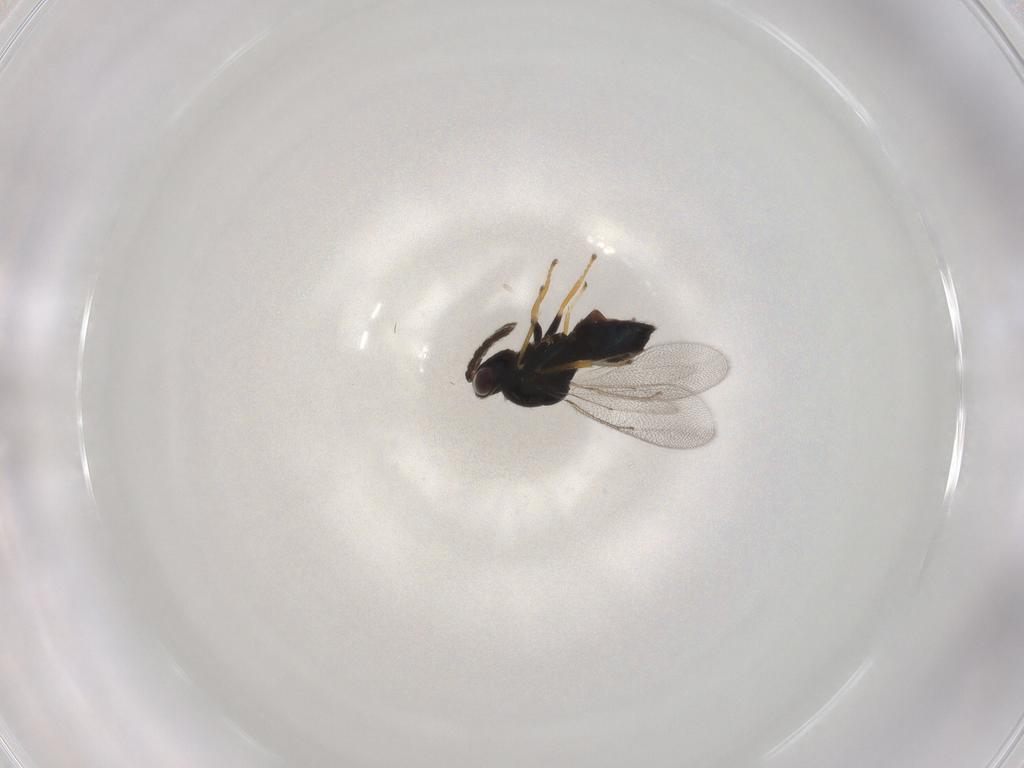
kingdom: Animalia
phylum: Arthropoda
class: Insecta
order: Hymenoptera
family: Eulophidae
